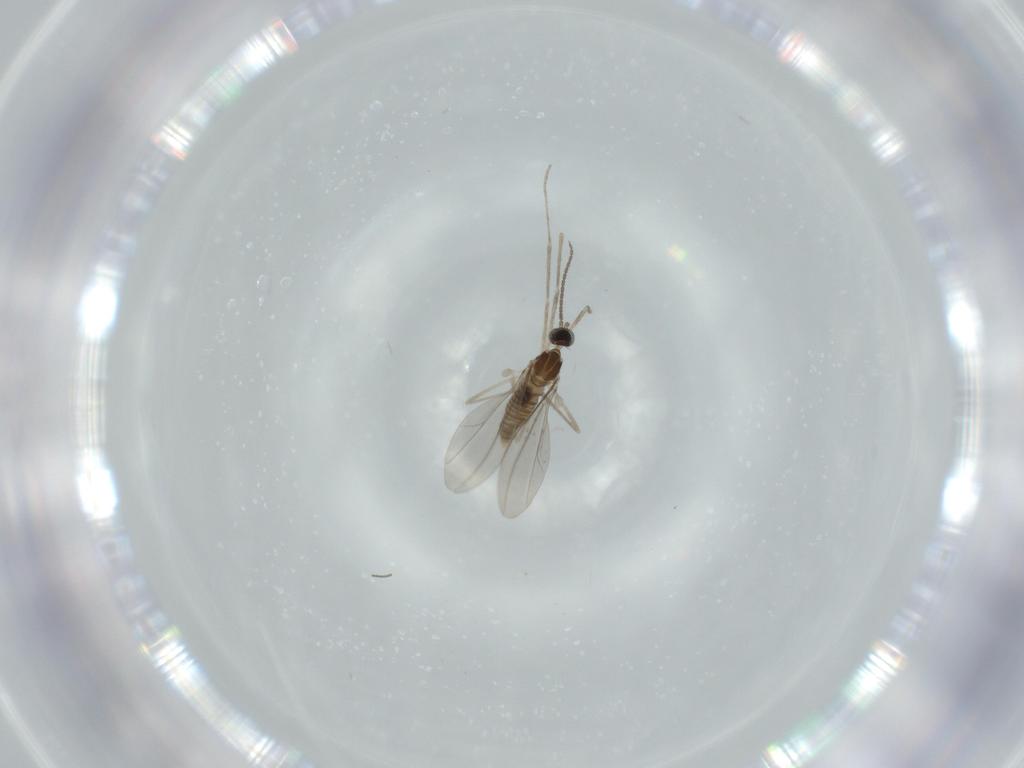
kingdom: Animalia
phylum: Arthropoda
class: Insecta
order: Diptera
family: Cecidomyiidae
